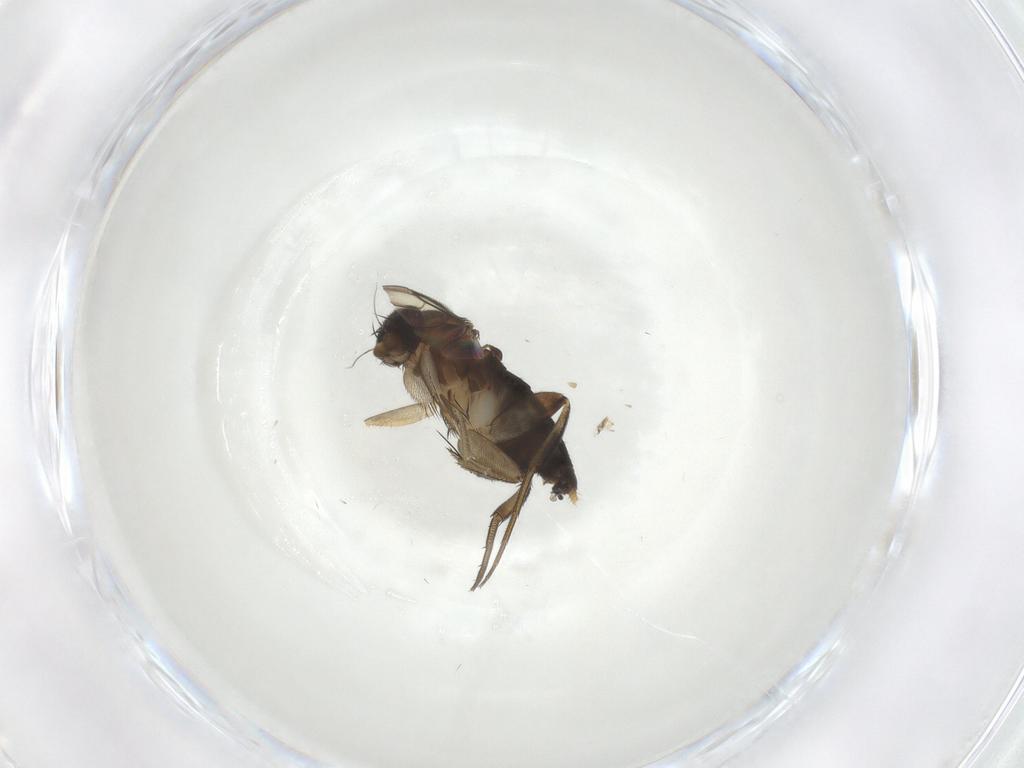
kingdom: Animalia
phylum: Arthropoda
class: Insecta
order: Diptera
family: Phoridae
